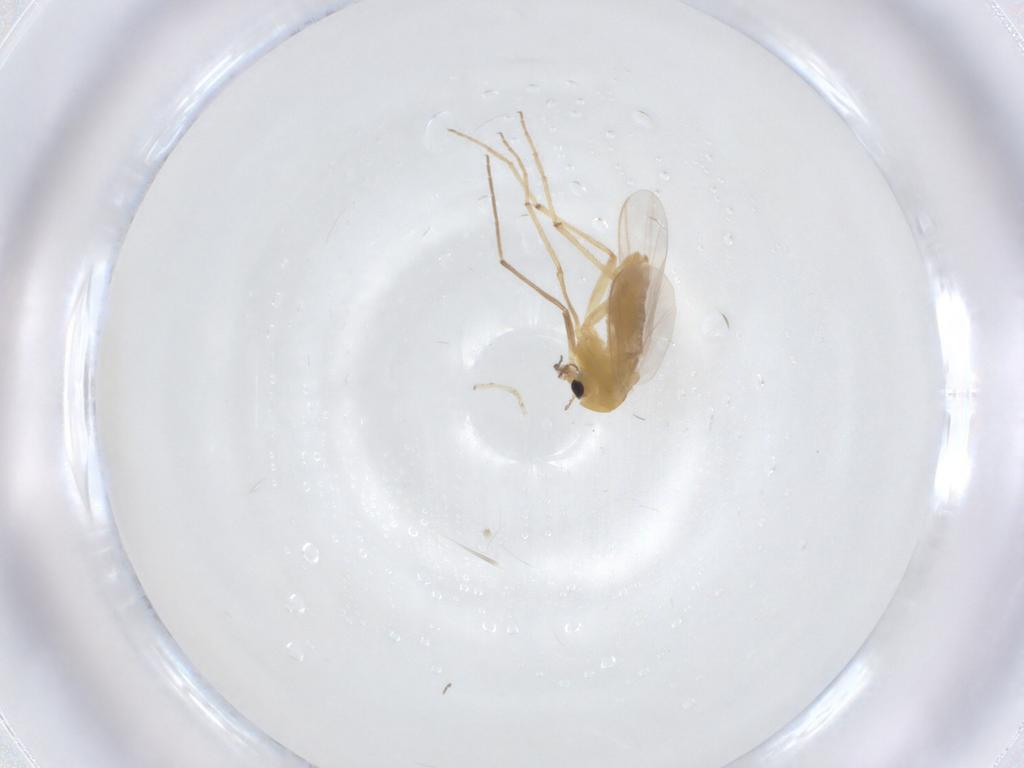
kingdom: Animalia
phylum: Arthropoda
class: Insecta
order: Diptera
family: Chironomidae
